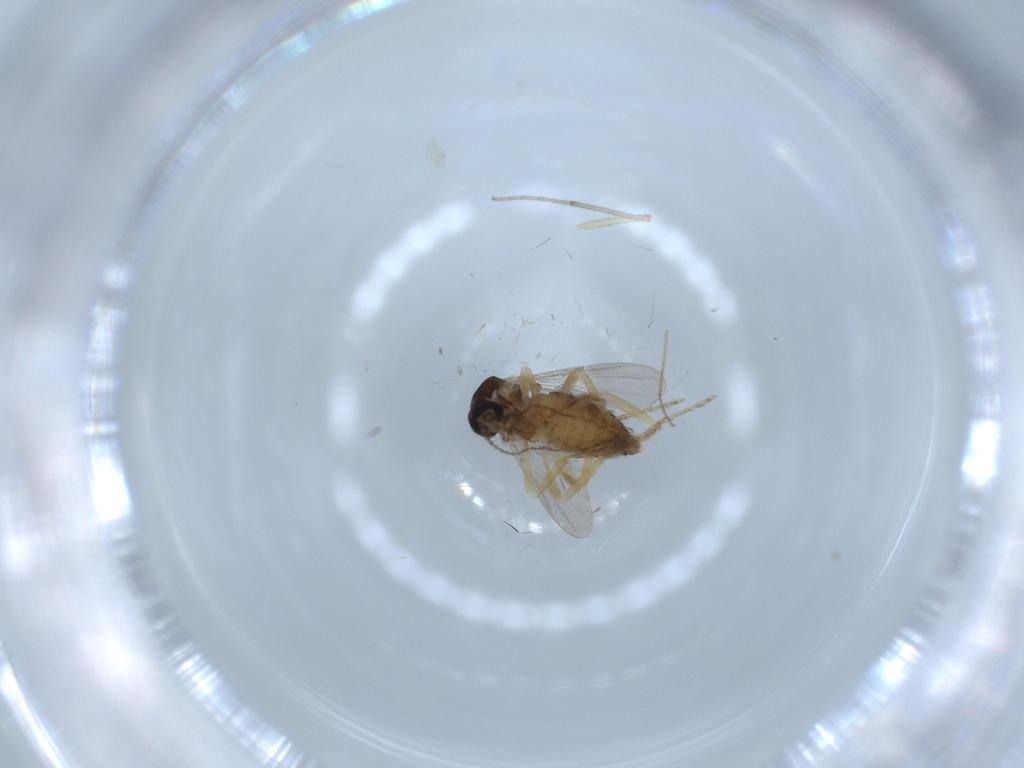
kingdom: Animalia
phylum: Arthropoda
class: Insecta
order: Diptera
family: Ceratopogonidae
